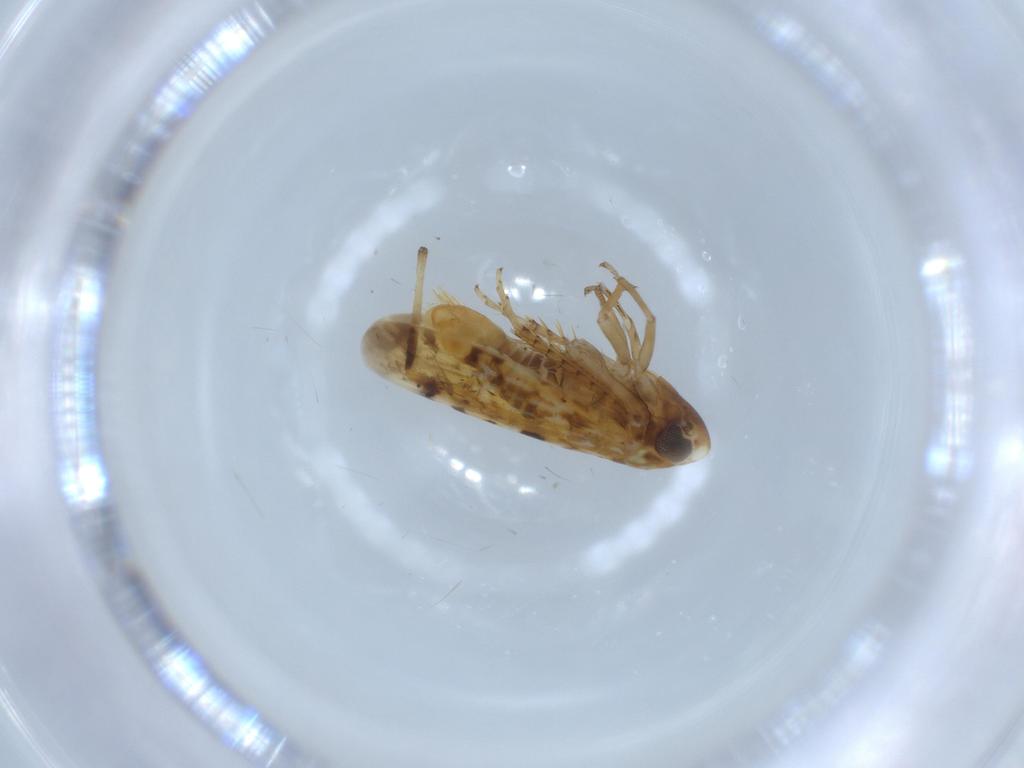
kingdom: Animalia
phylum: Arthropoda
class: Insecta
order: Hemiptera
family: Cicadellidae
